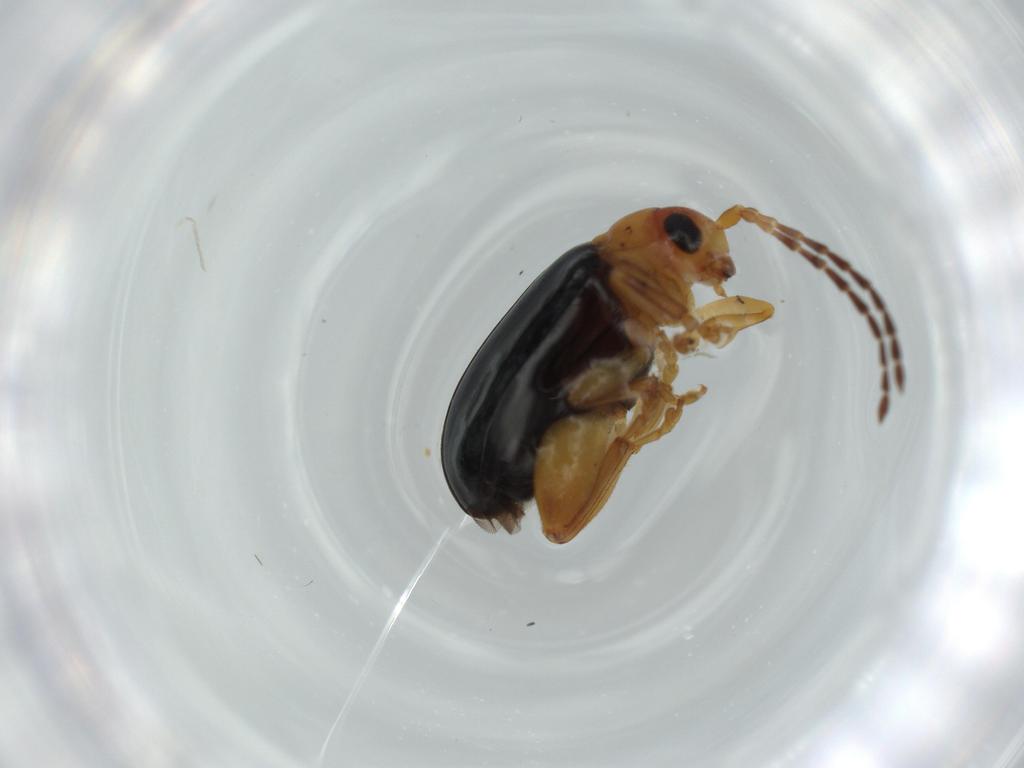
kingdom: Animalia
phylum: Arthropoda
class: Insecta
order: Coleoptera
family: Chrysomelidae
